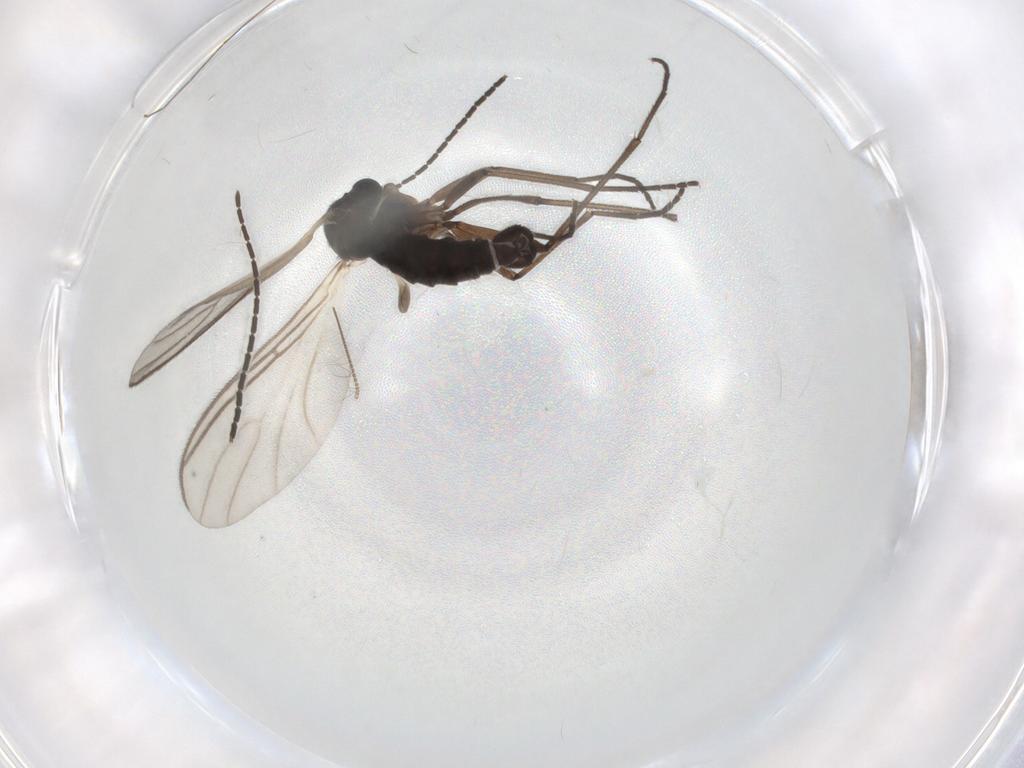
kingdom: Animalia
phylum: Arthropoda
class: Insecta
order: Diptera
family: Sciaridae
